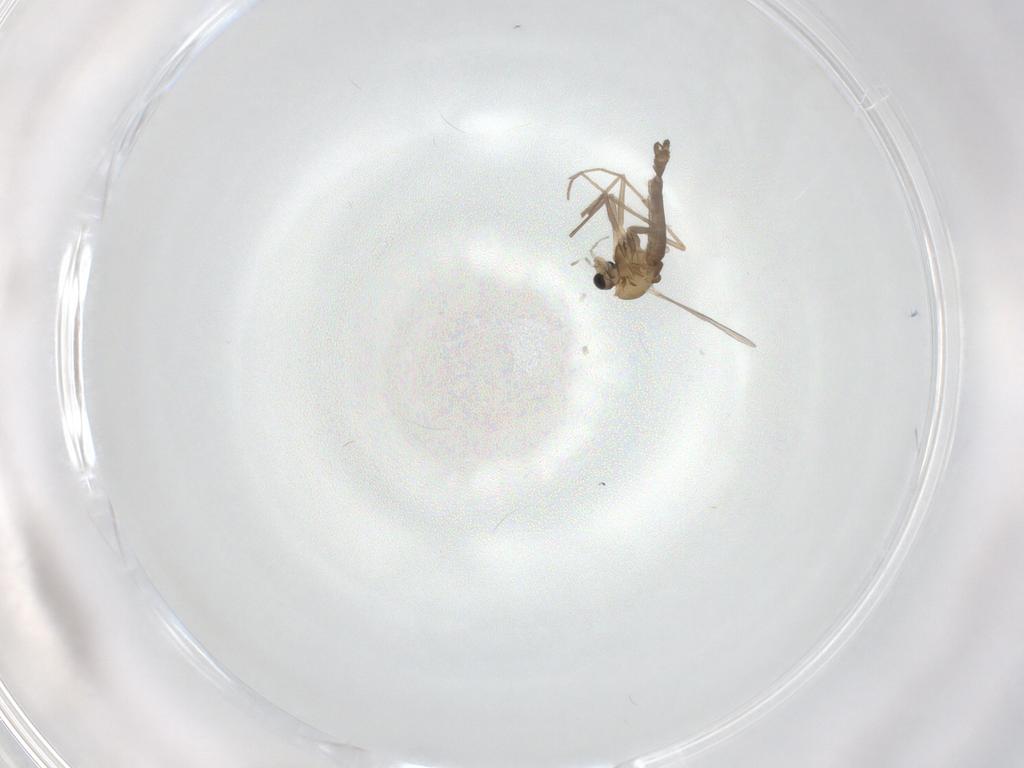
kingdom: Animalia
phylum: Arthropoda
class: Insecta
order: Diptera
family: Chironomidae
